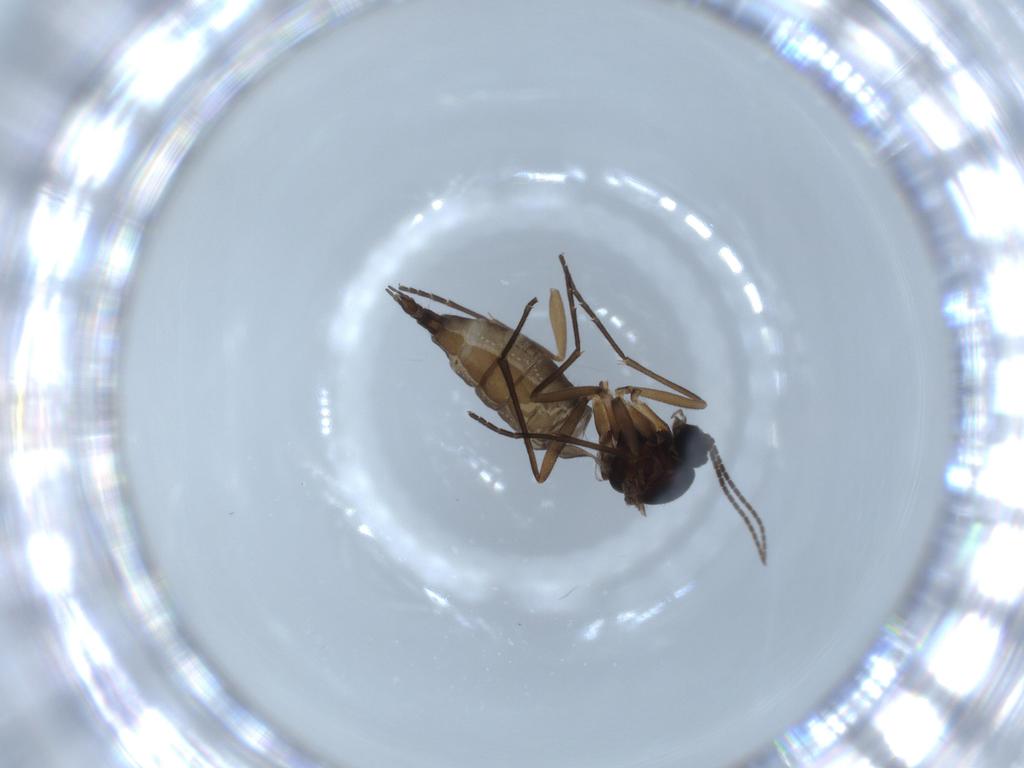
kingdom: Animalia
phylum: Arthropoda
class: Insecta
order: Diptera
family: Sciaridae
